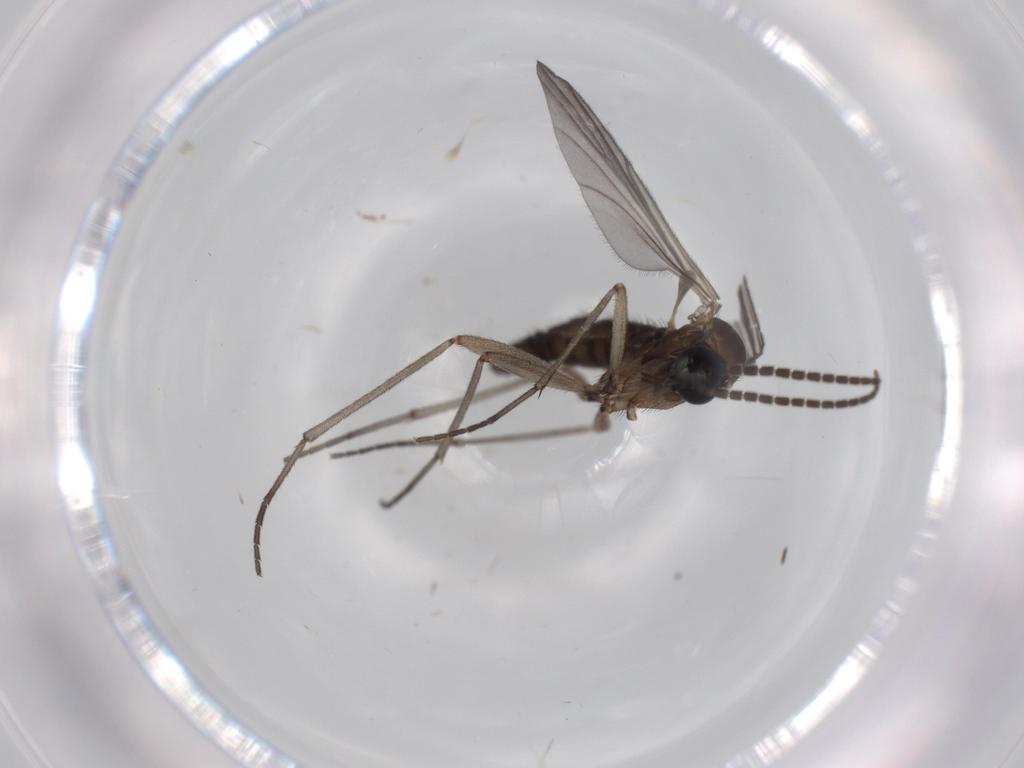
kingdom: Animalia
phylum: Arthropoda
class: Insecta
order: Diptera
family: Sciaridae
